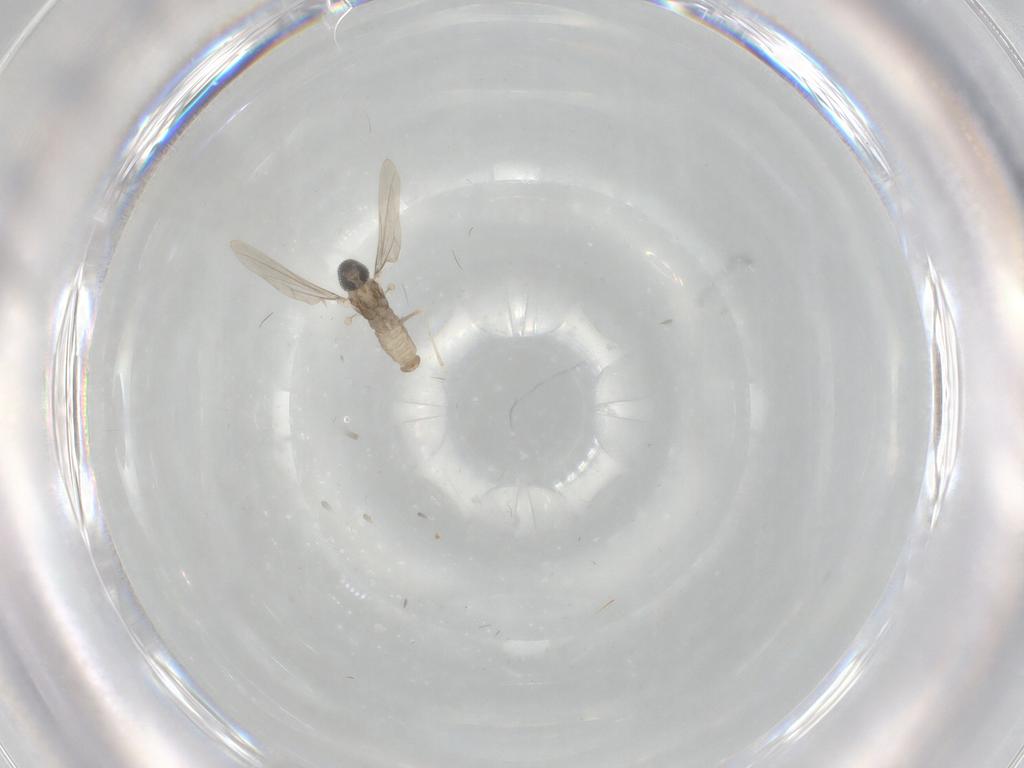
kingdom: Animalia
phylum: Arthropoda
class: Insecta
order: Diptera
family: Cecidomyiidae
